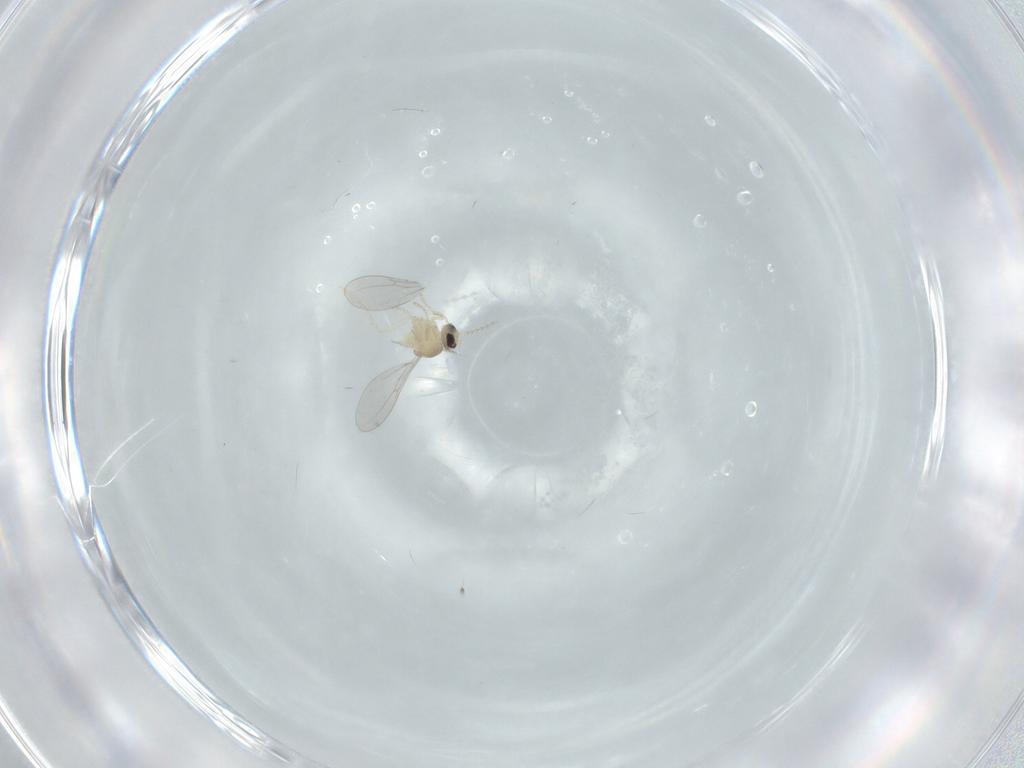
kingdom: Animalia
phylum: Arthropoda
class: Insecta
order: Diptera
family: Cecidomyiidae
